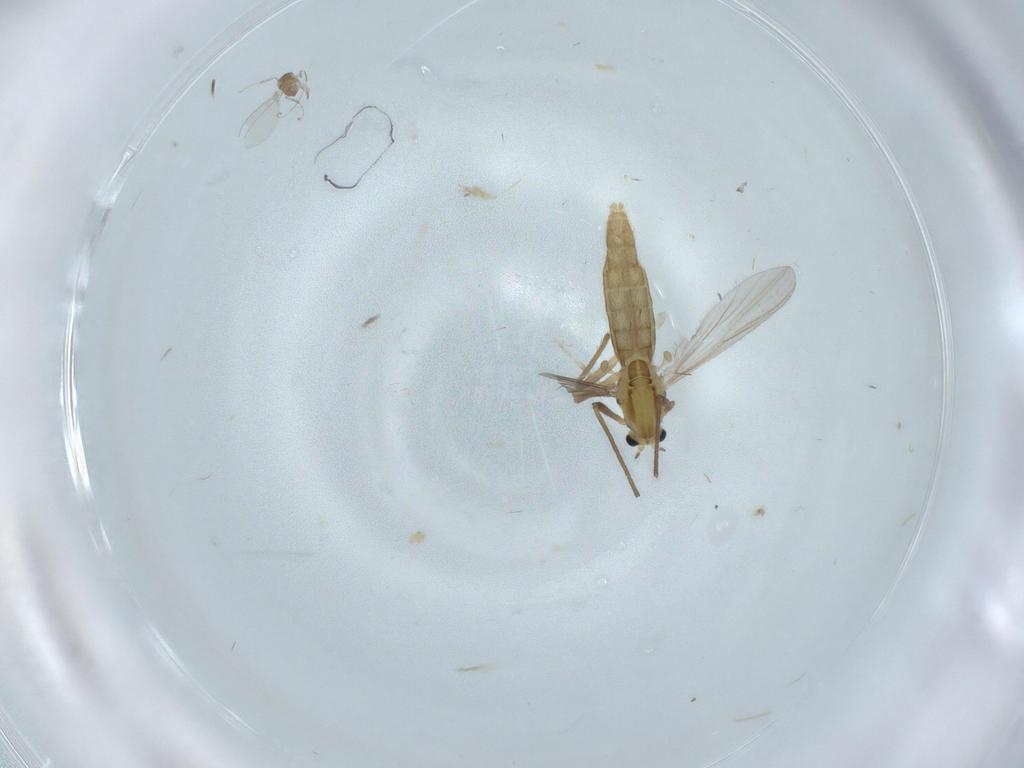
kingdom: Animalia
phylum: Arthropoda
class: Insecta
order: Diptera
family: Chironomidae
